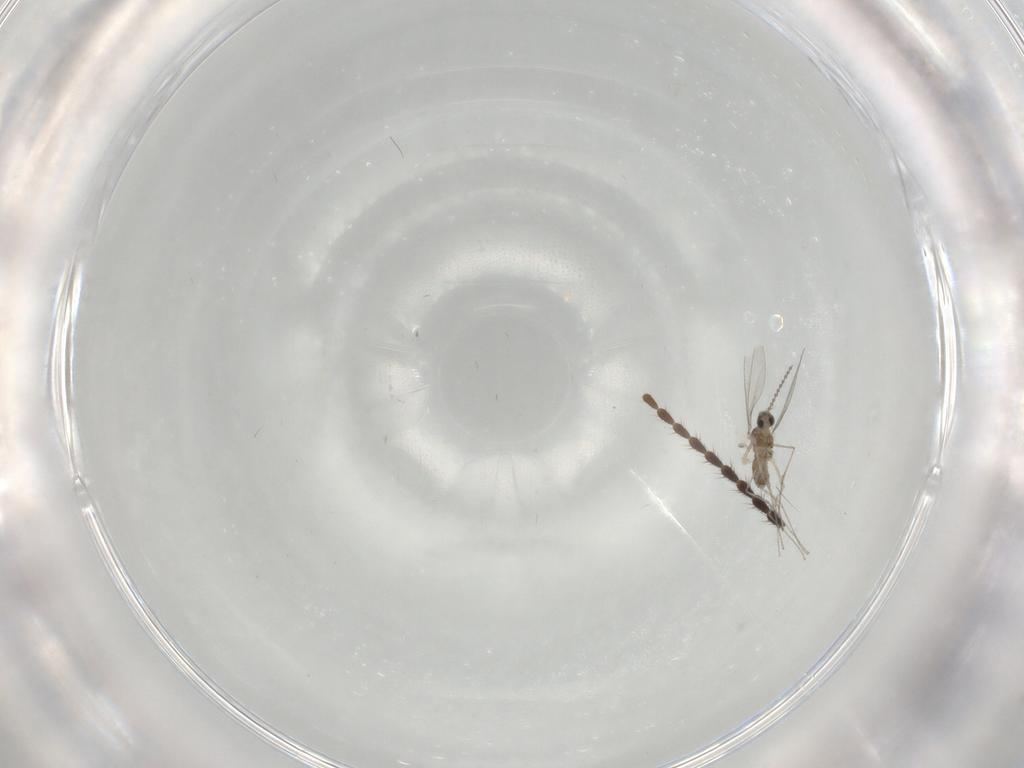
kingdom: Animalia
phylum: Arthropoda
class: Insecta
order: Diptera
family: Cecidomyiidae
